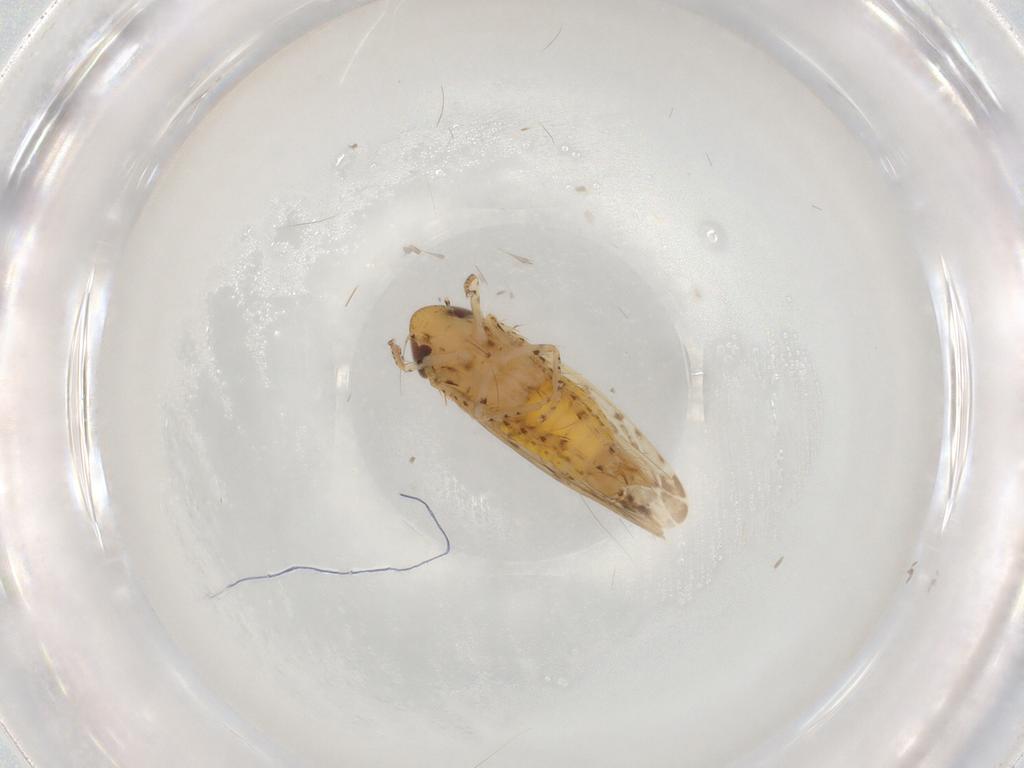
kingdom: Animalia
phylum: Arthropoda
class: Insecta
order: Hemiptera
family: Cicadellidae
